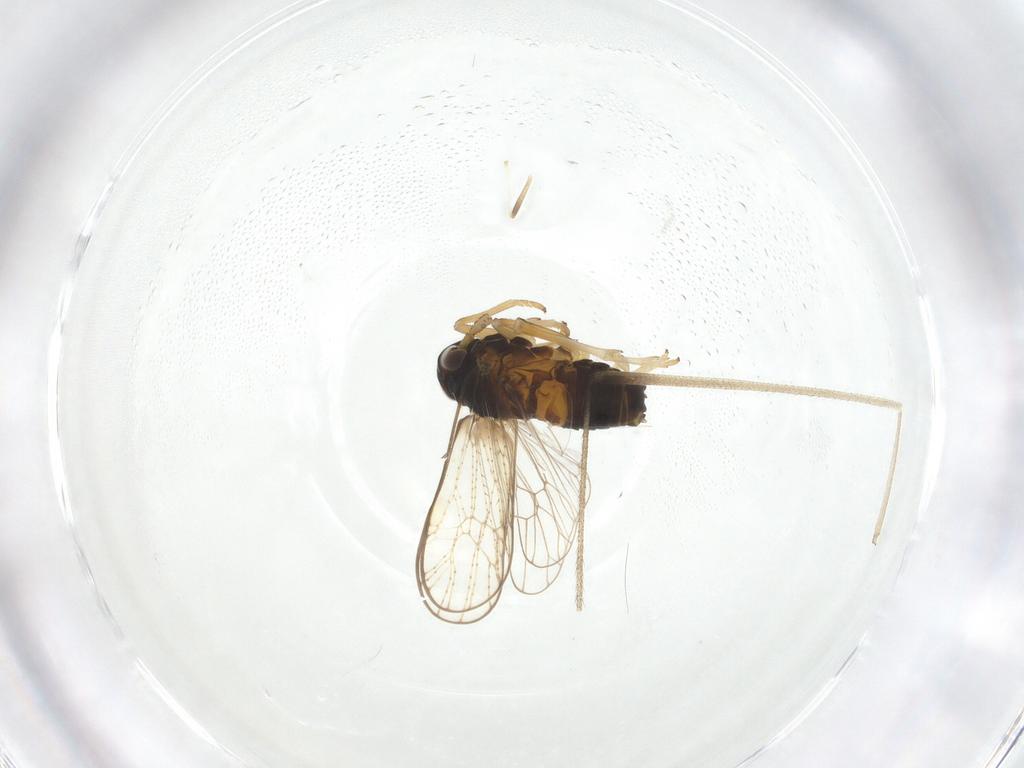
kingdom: Animalia
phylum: Arthropoda
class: Insecta
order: Hemiptera
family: Delphacidae
